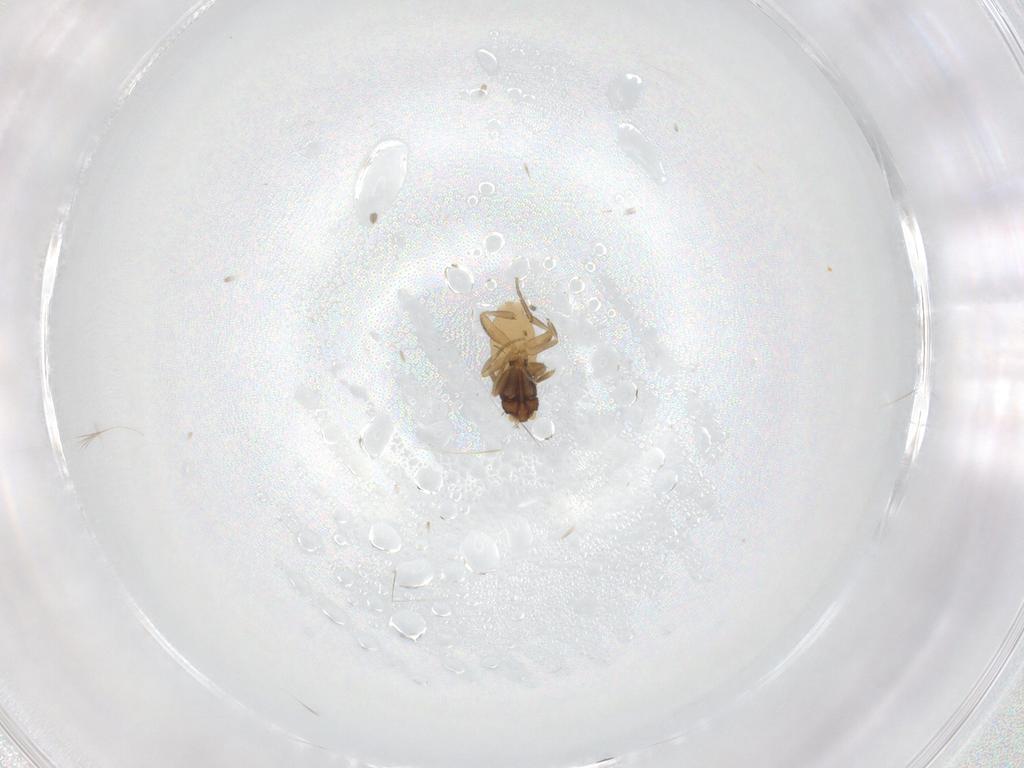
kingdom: Animalia
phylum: Arthropoda
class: Insecta
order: Diptera
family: Phoridae
